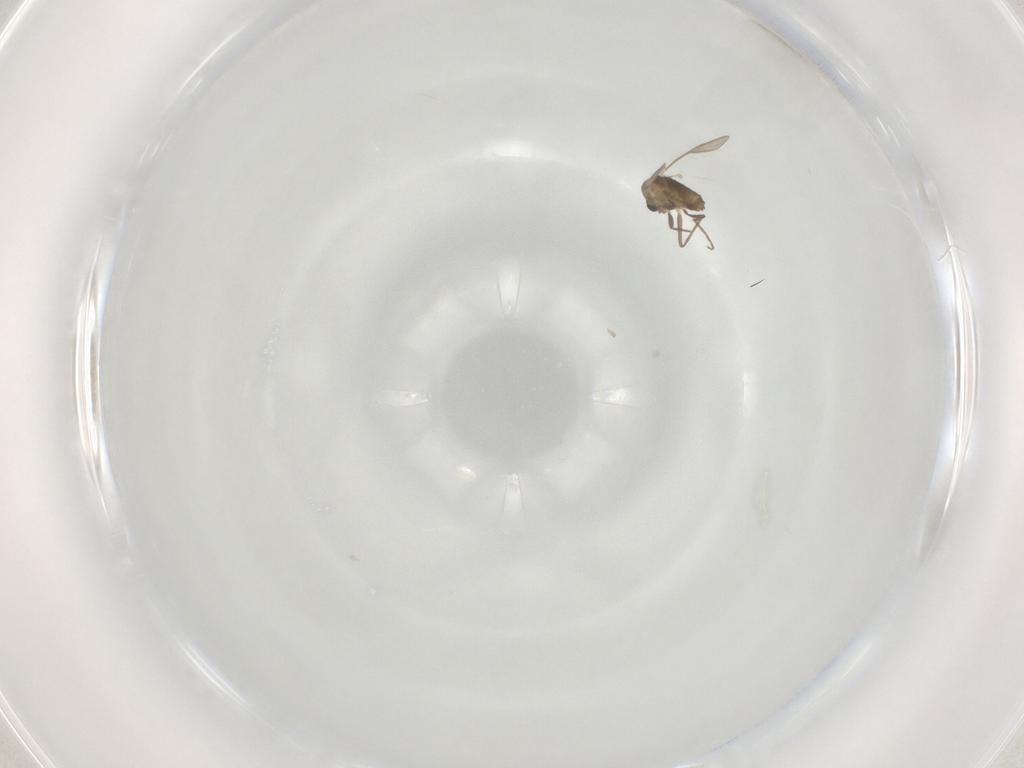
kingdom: Animalia
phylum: Arthropoda
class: Insecta
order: Diptera
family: Chironomidae
